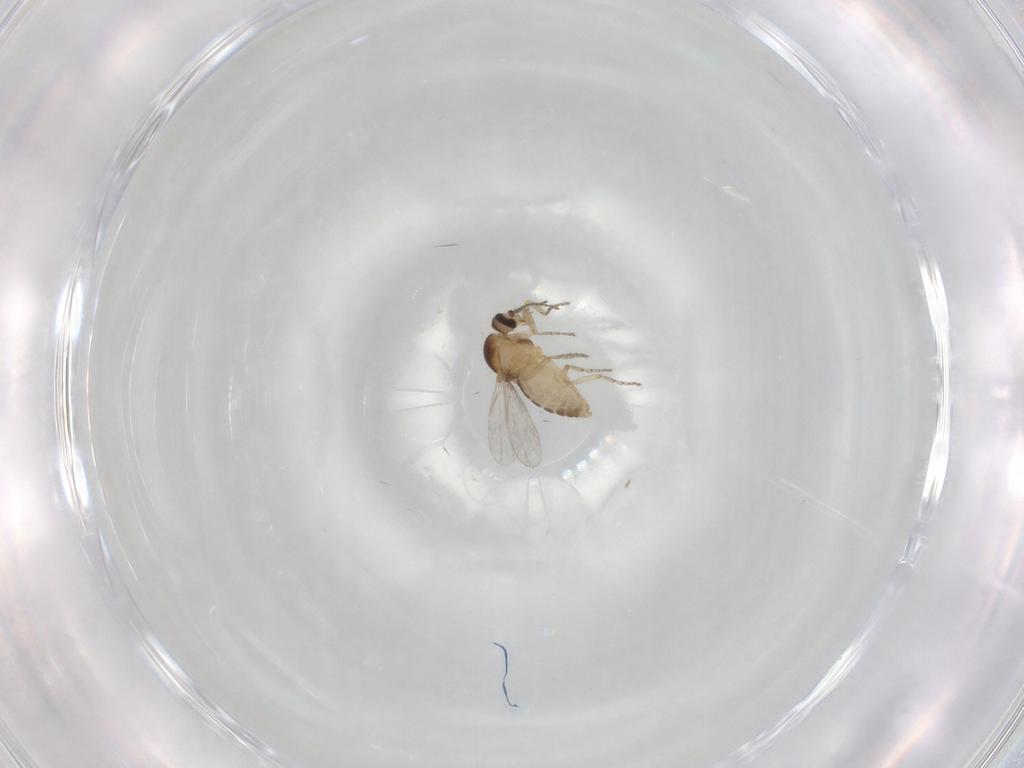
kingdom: Animalia
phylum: Arthropoda
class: Insecta
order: Diptera
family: Ceratopogonidae
